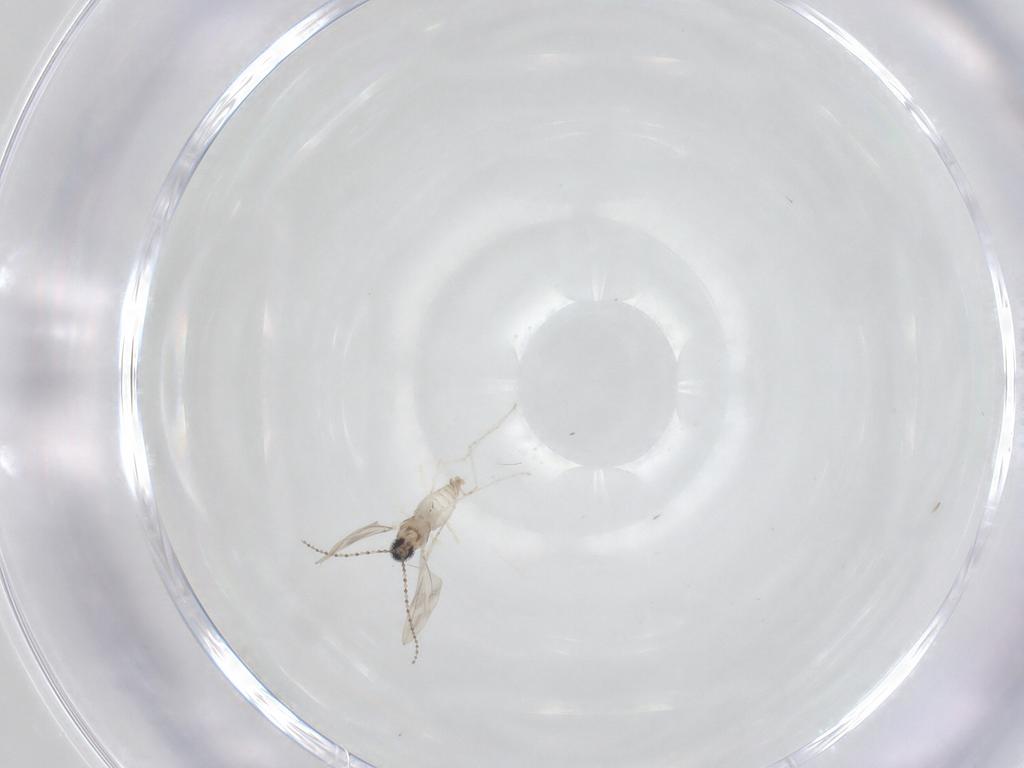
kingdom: Animalia
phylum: Arthropoda
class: Insecta
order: Diptera
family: Cecidomyiidae
